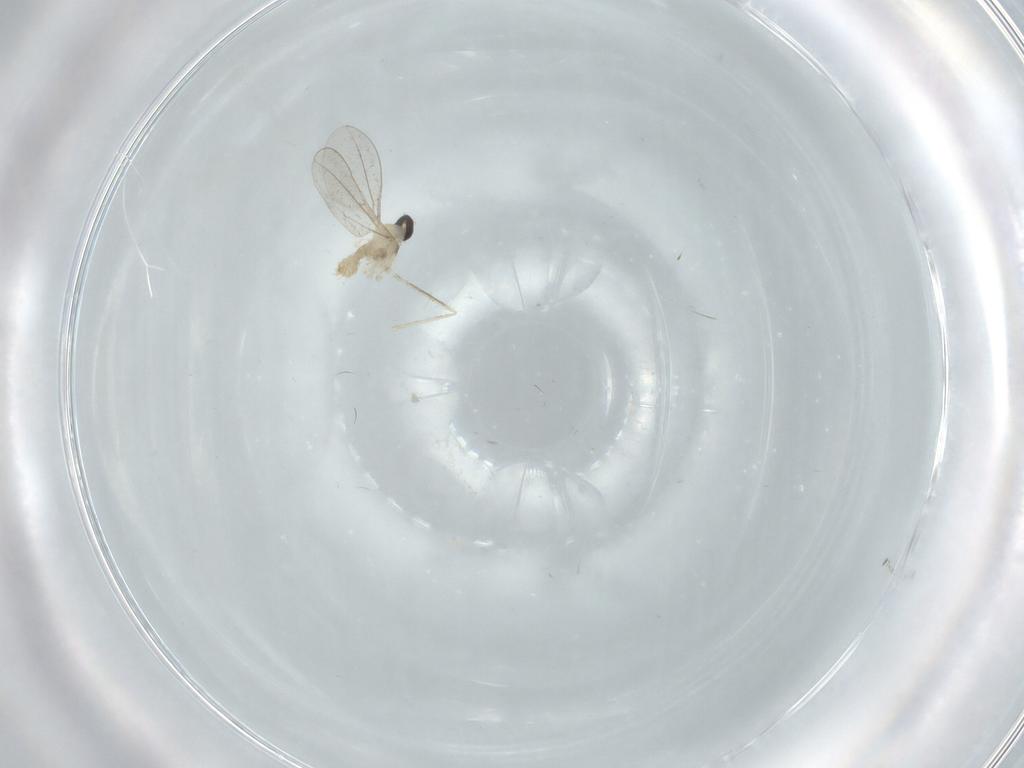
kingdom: Animalia
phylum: Arthropoda
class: Insecta
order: Diptera
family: Cecidomyiidae
